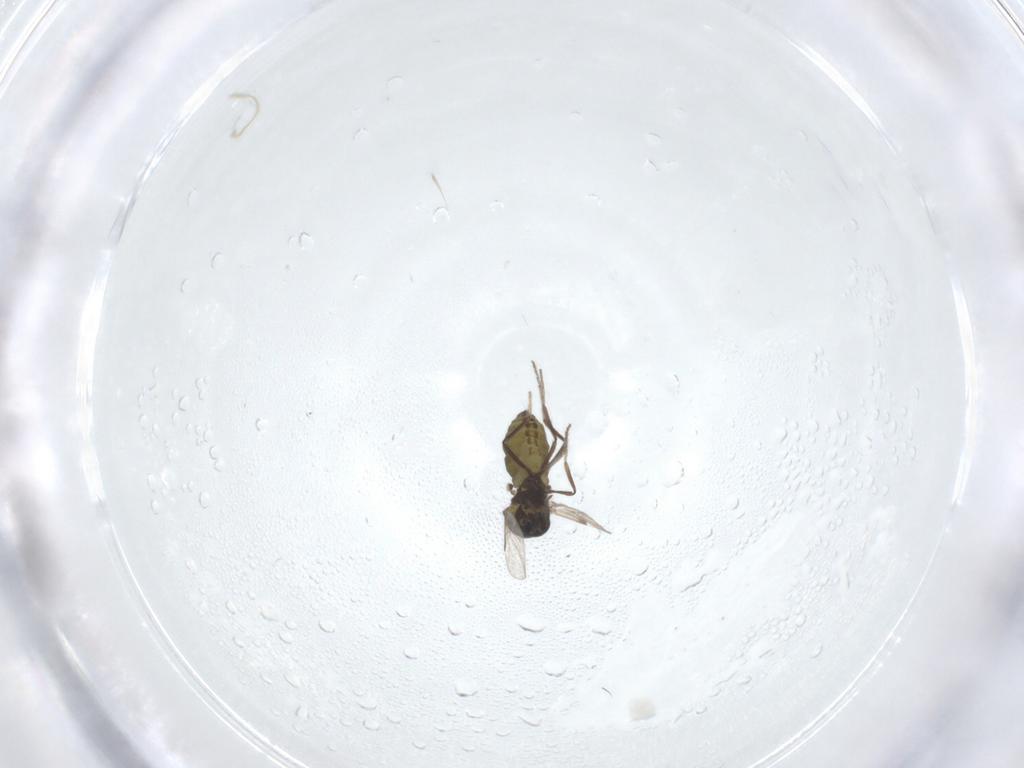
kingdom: Animalia
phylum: Arthropoda
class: Insecta
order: Diptera
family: Ceratopogonidae
